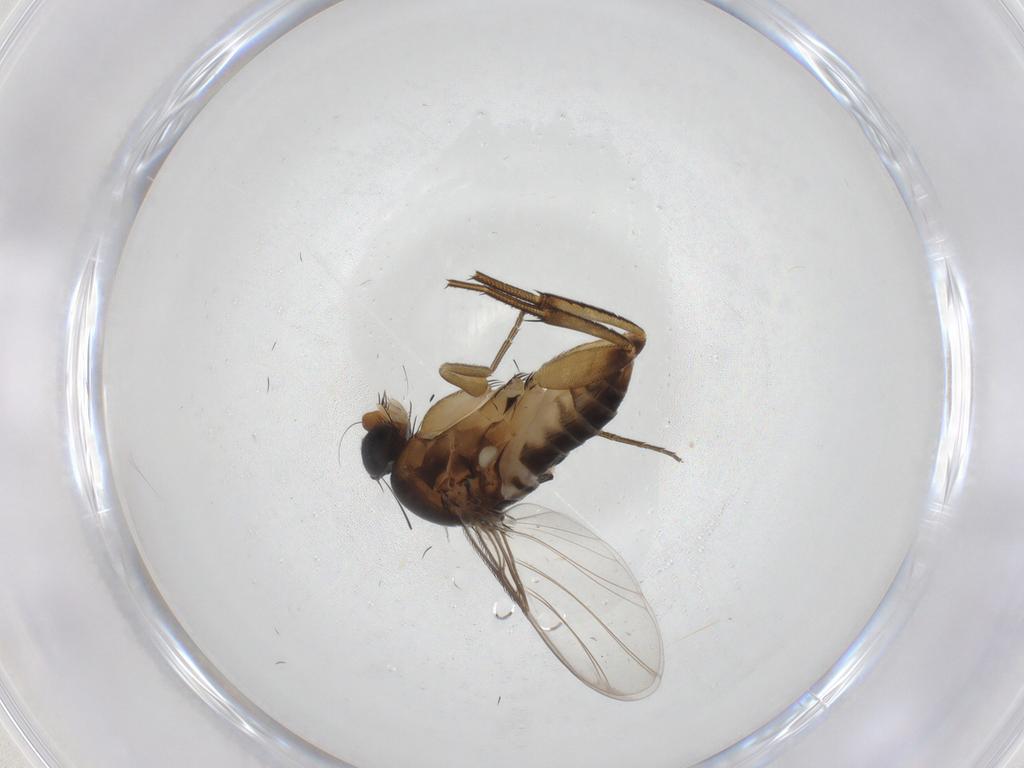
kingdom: Animalia
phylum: Arthropoda
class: Insecta
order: Diptera
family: Phoridae
